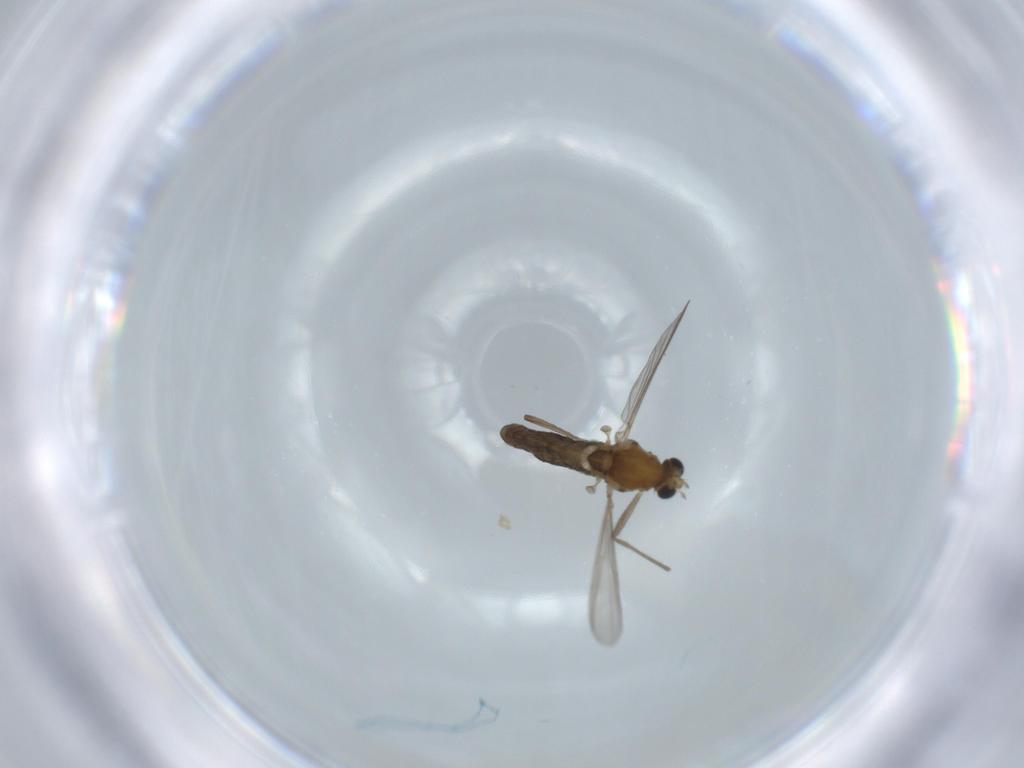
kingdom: Animalia
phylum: Arthropoda
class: Insecta
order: Diptera
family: Chironomidae
